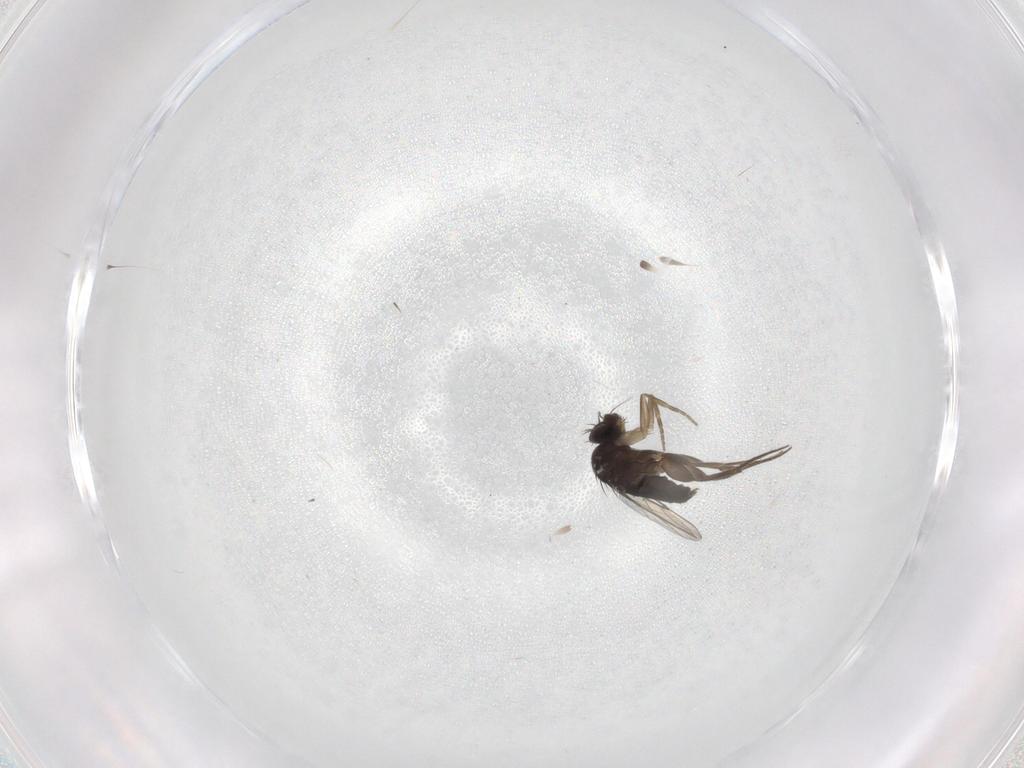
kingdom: Animalia
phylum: Arthropoda
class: Insecta
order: Diptera
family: Phoridae
